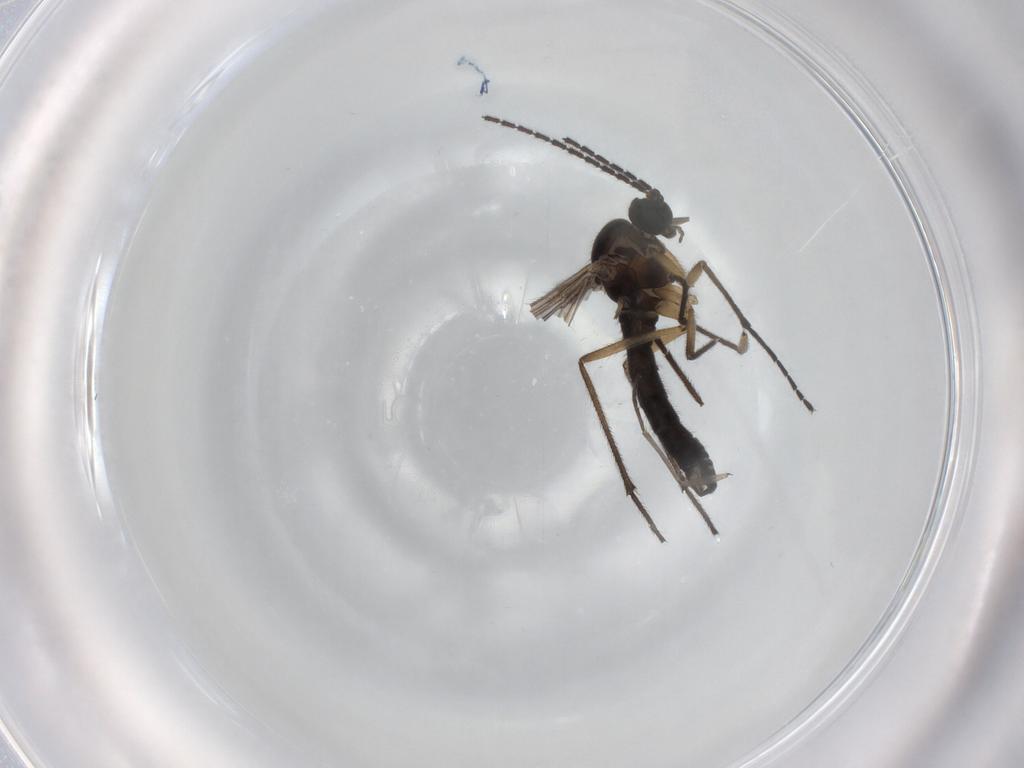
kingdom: Animalia
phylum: Arthropoda
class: Insecta
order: Diptera
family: Sciaridae
